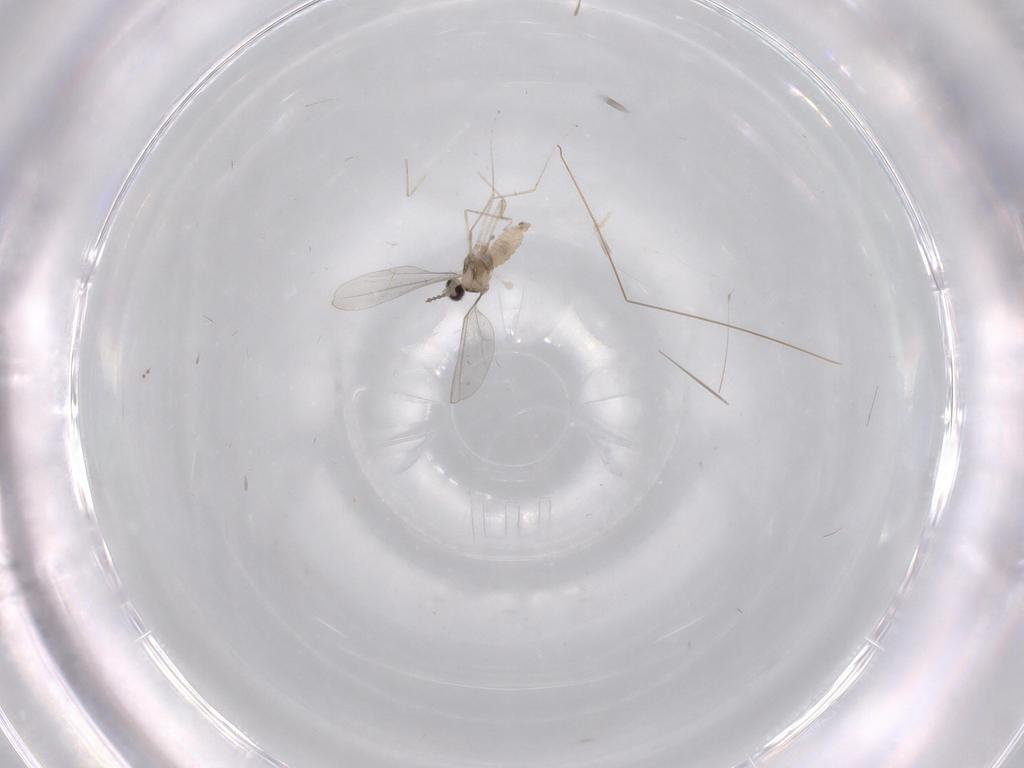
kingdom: Animalia
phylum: Arthropoda
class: Insecta
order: Diptera
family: Cecidomyiidae
